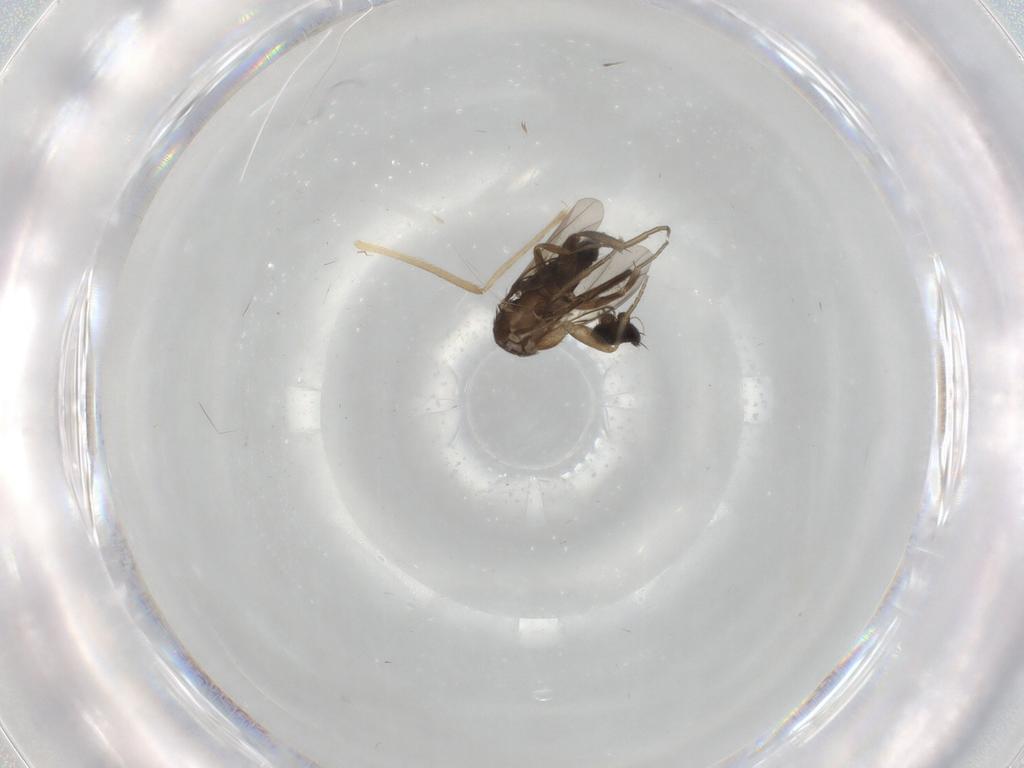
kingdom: Animalia
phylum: Arthropoda
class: Insecta
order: Diptera
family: Phoridae
